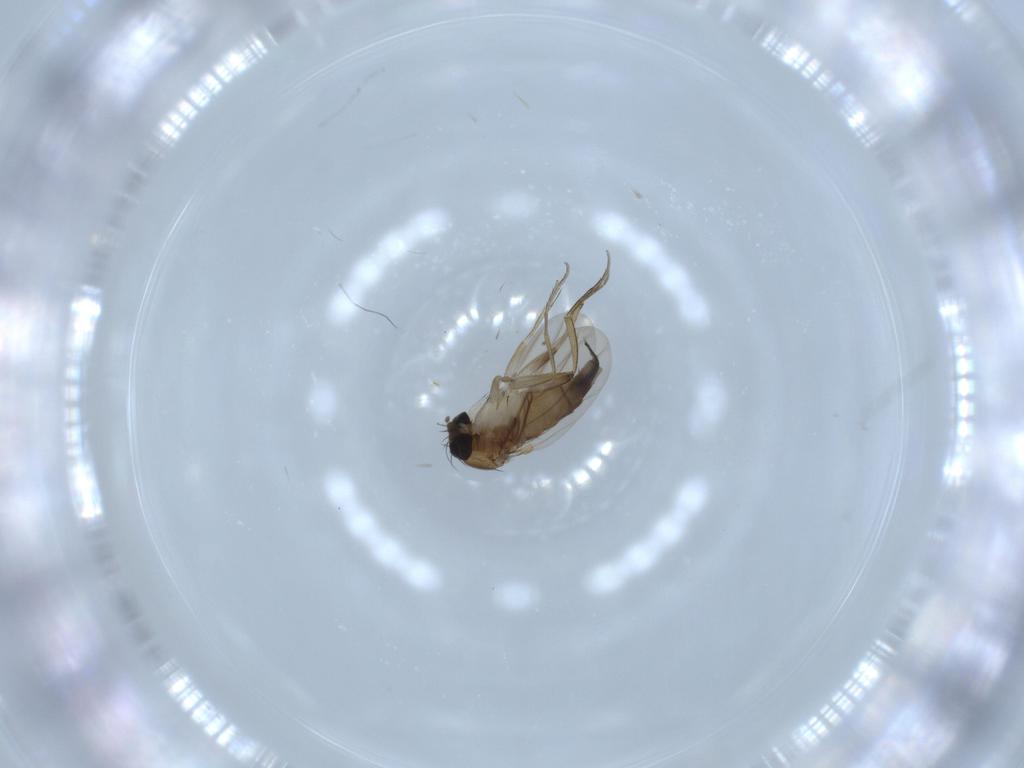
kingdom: Animalia
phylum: Arthropoda
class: Insecta
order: Diptera
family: Phoridae
